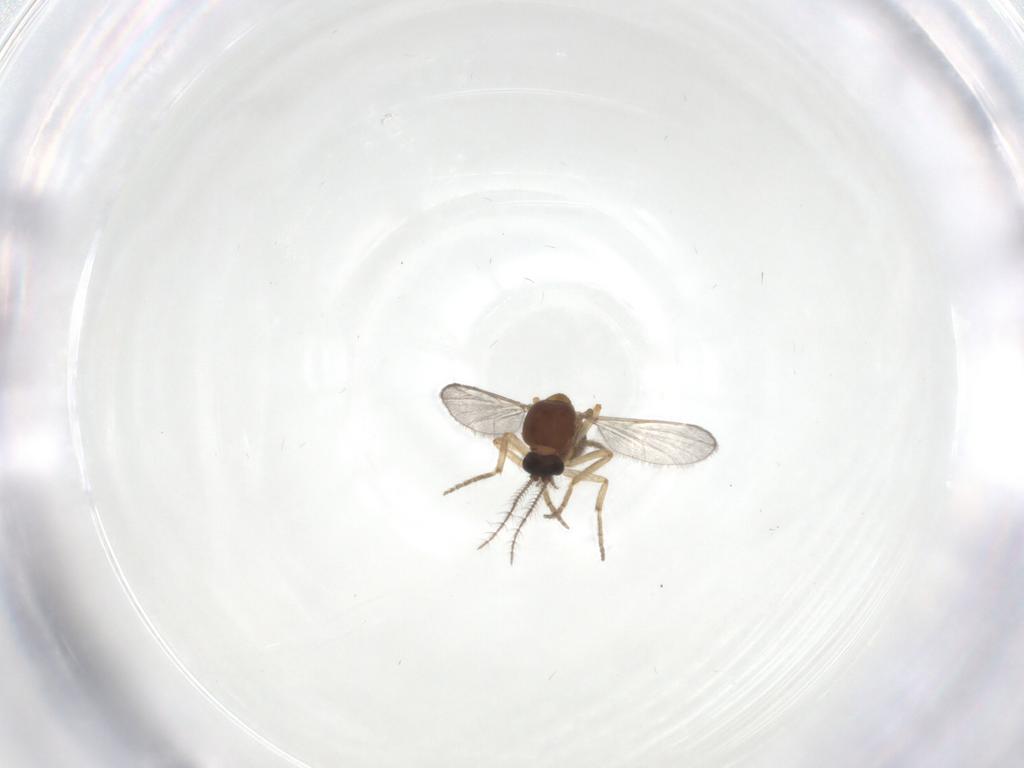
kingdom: Animalia
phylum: Arthropoda
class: Insecta
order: Diptera
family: Ceratopogonidae
